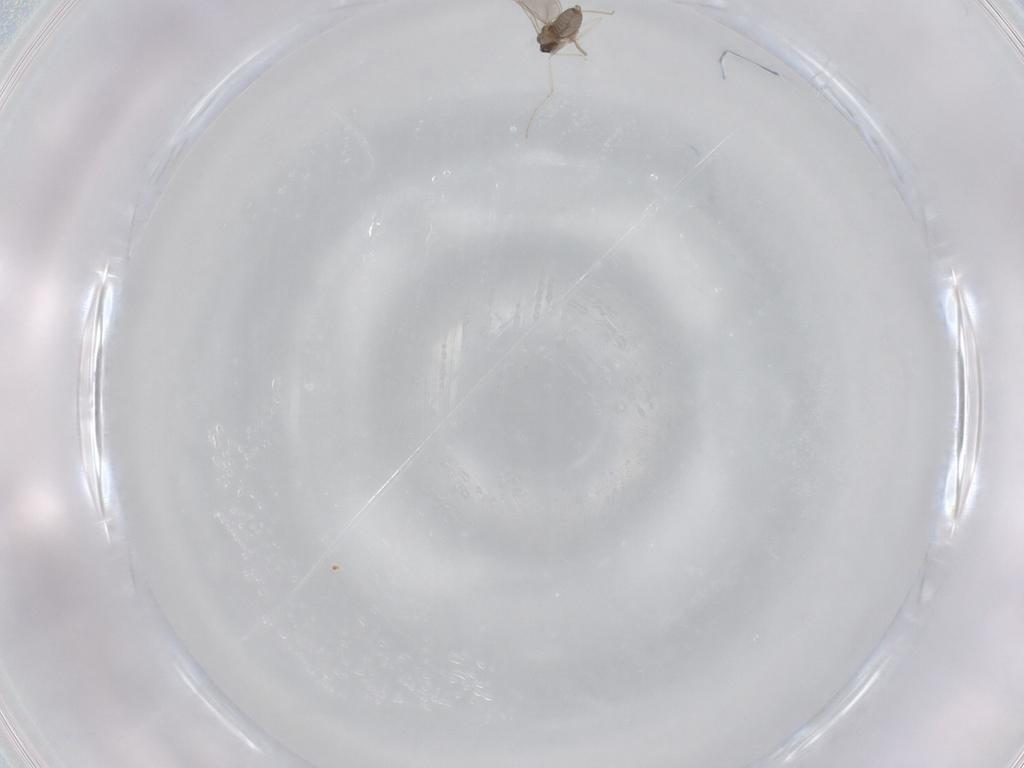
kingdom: Animalia
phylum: Arthropoda
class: Insecta
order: Diptera
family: Cecidomyiidae
